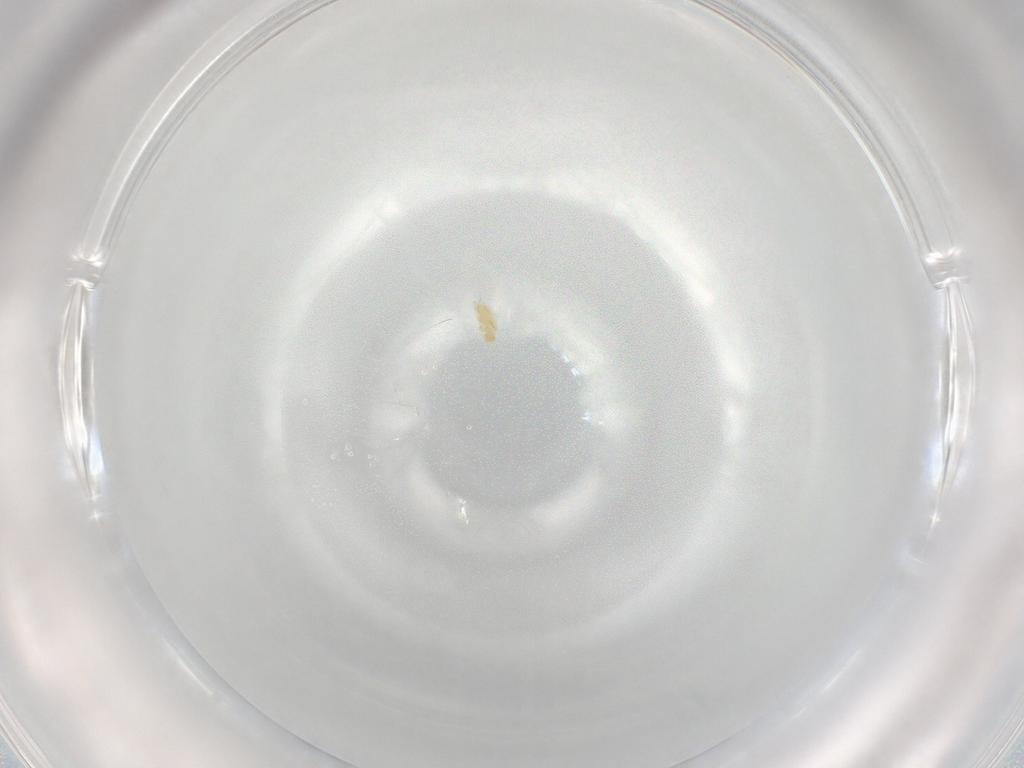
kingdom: Animalia
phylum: Arthropoda
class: Arachnida
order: Trombidiformes
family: Eupodidae
